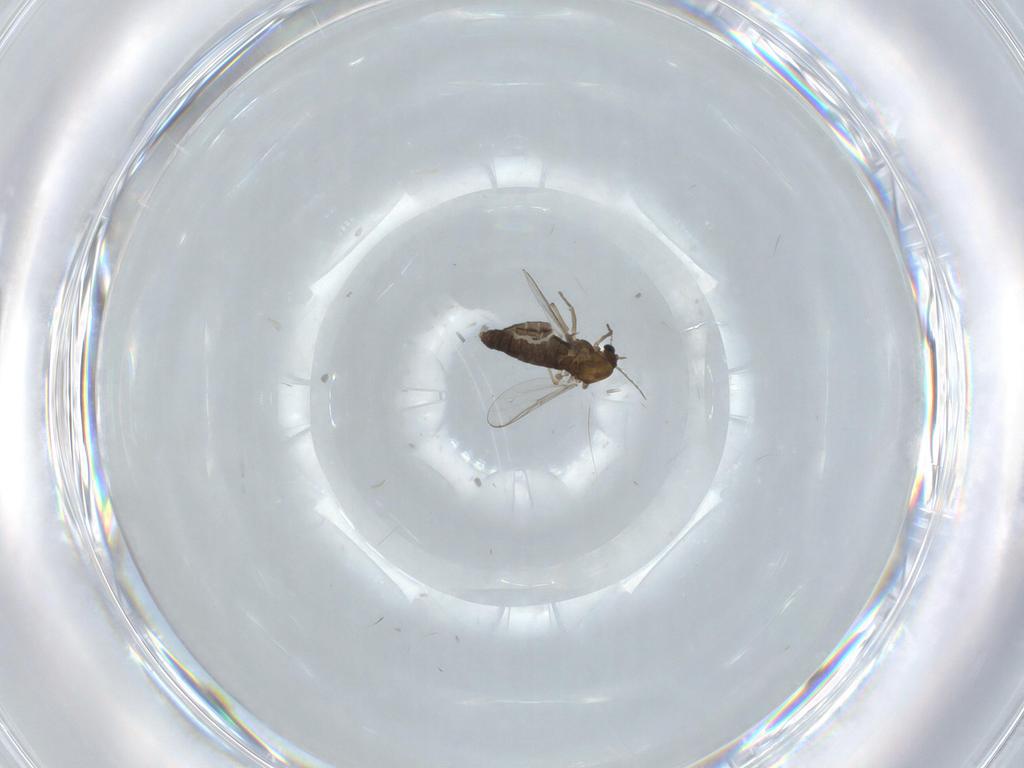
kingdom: Animalia
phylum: Arthropoda
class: Insecta
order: Diptera
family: Chironomidae
